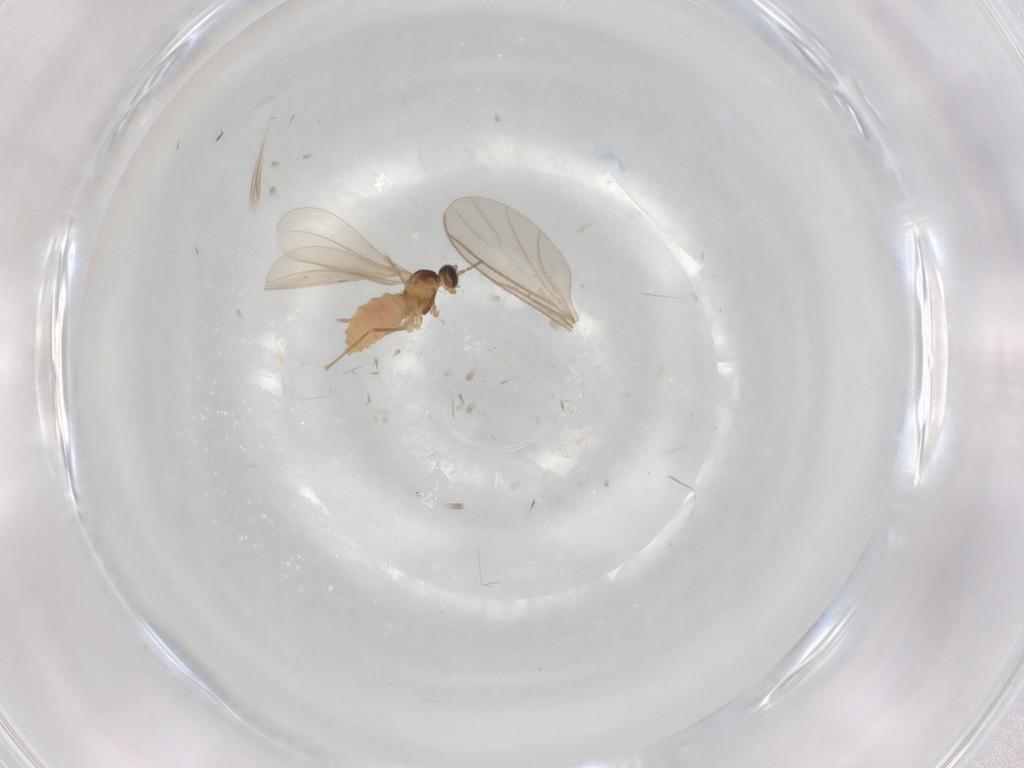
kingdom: Animalia
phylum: Arthropoda
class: Insecta
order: Diptera
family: Cecidomyiidae
